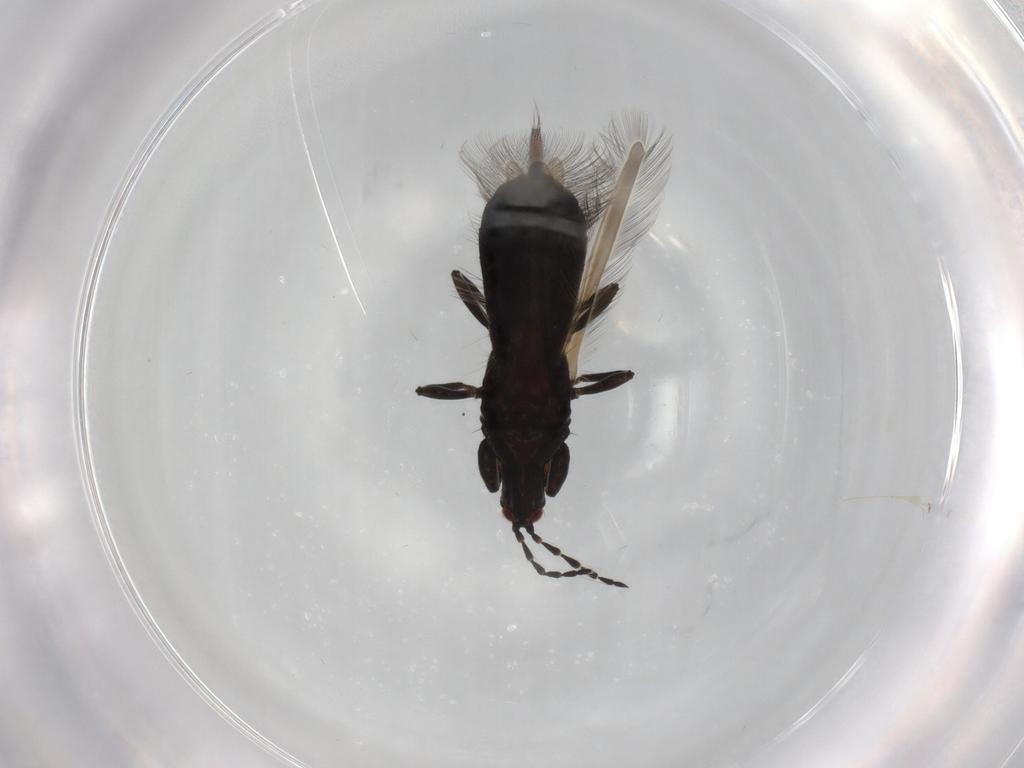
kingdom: Animalia
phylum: Arthropoda
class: Insecta
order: Thysanoptera
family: Phlaeothripidae
